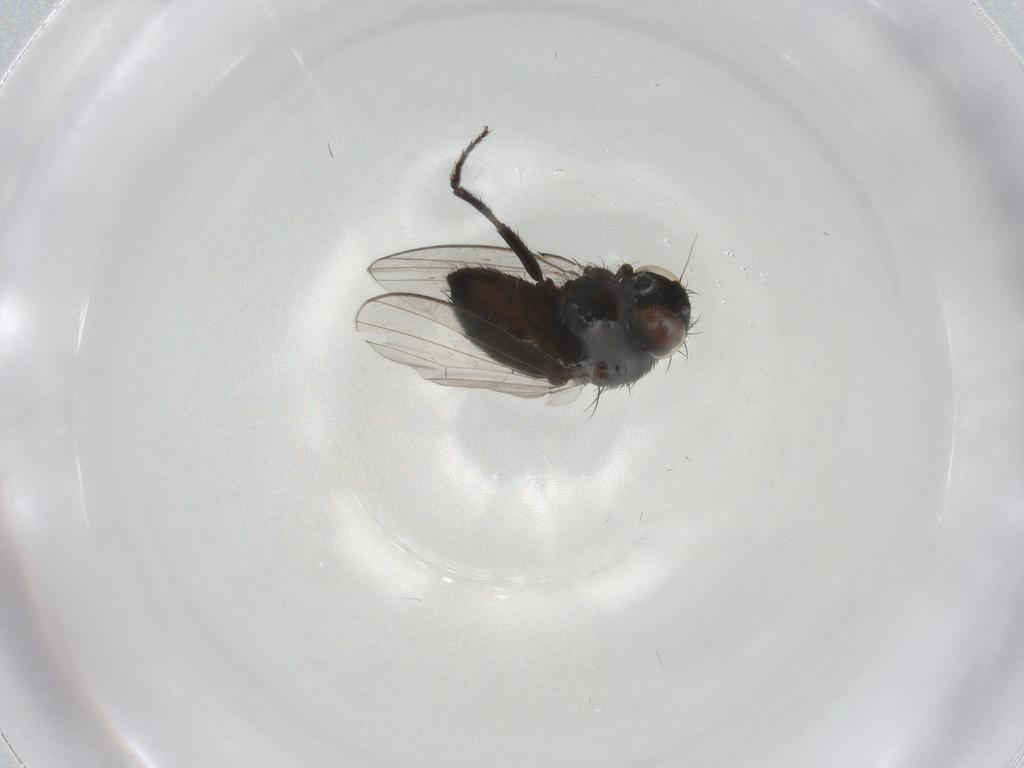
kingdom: Animalia
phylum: Arthropoda
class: Insecta
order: Diptera
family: Milichiidae
